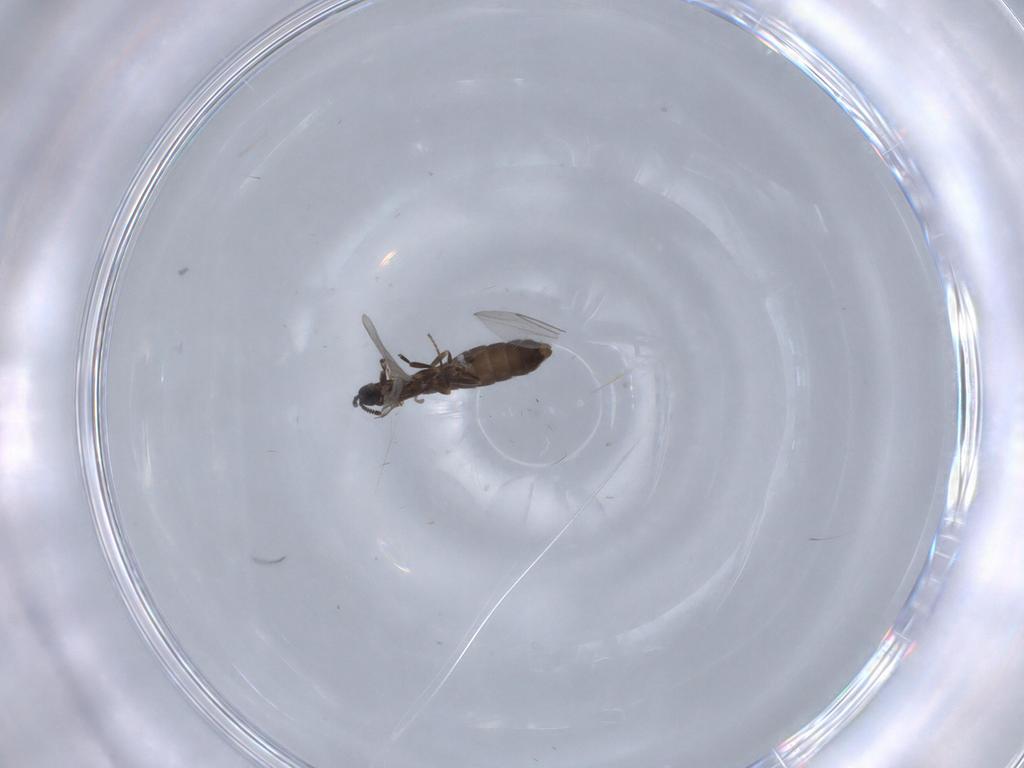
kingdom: Animalia
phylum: Arthropoda
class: Insecta
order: Diptera
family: Scatopsidae
